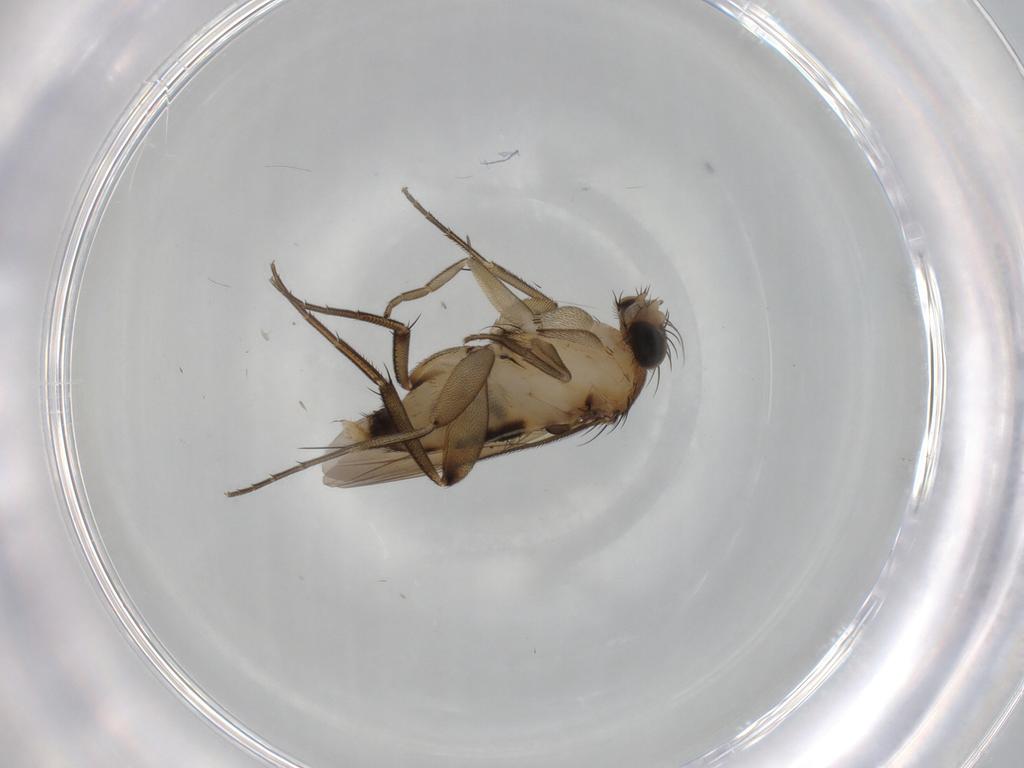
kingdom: Animalia
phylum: Arthropoda
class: Insecta
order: Diptera
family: Phoridae
